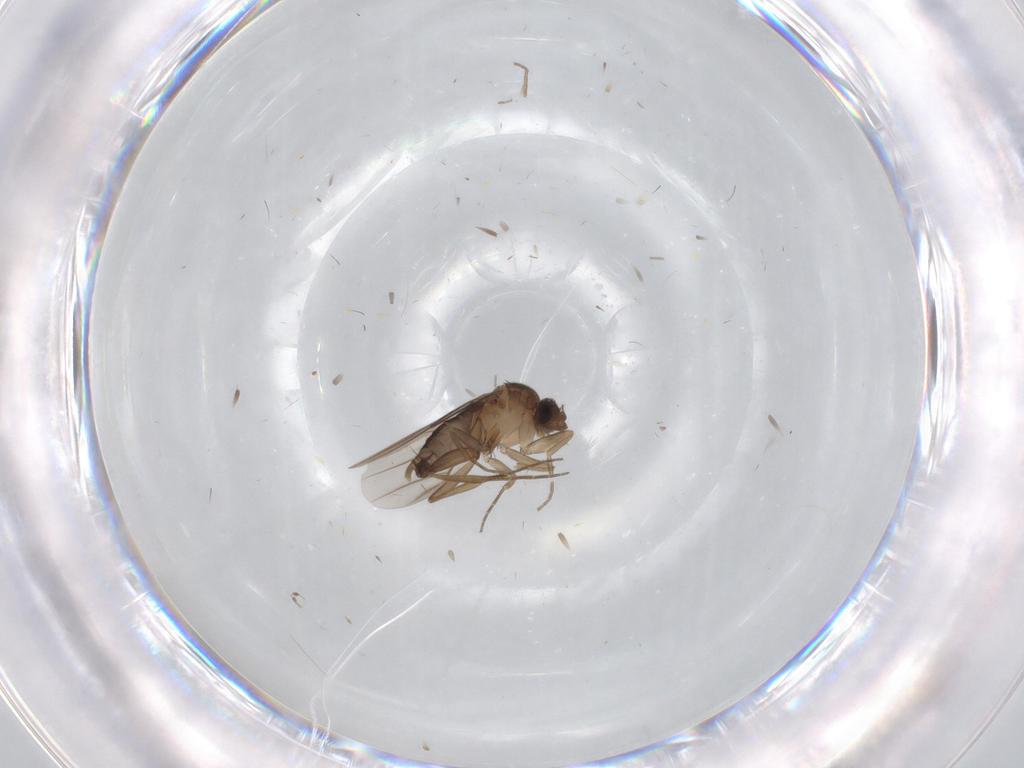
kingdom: Animalia
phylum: Arthropoda
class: Insecta
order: Diptera
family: Phoridae
